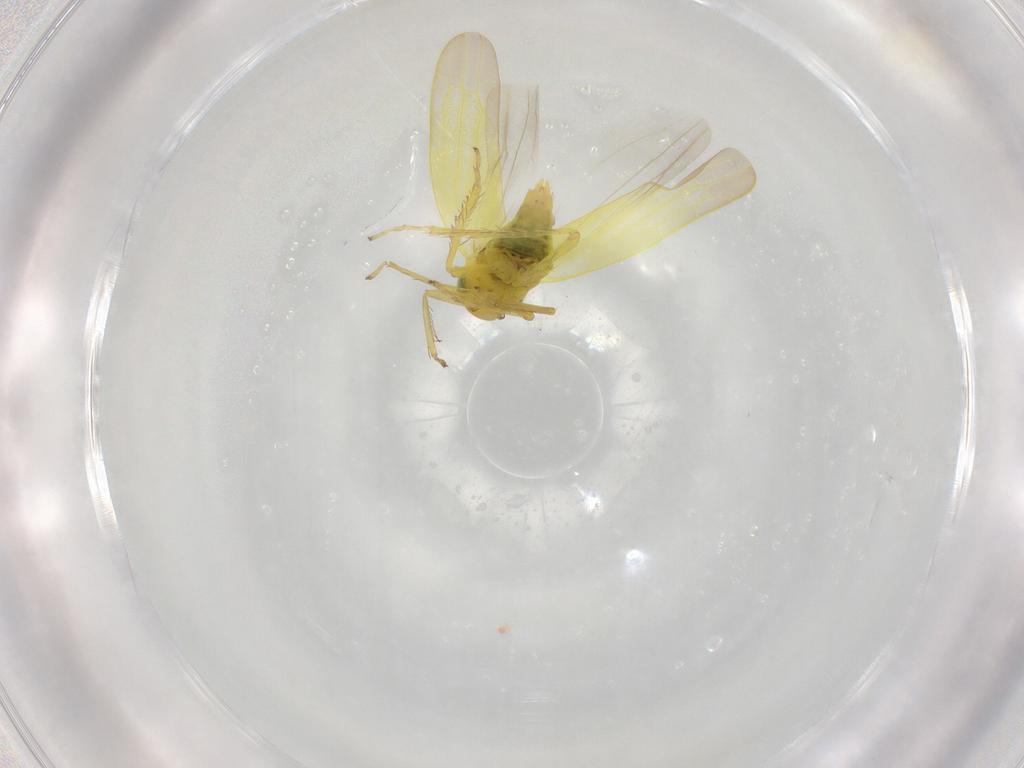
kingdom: Animalia
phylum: Arthropoda
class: Insecta
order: Hemiptera
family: Cicadellidae
